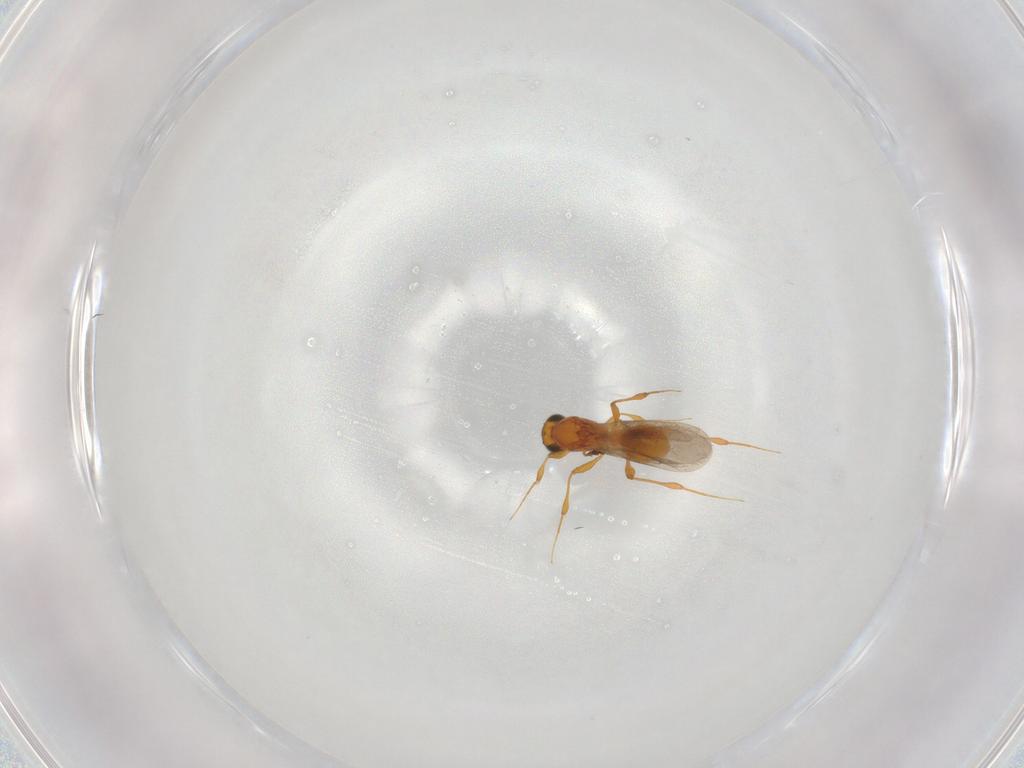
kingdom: Animalia
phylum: Arthropoda
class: Insecta
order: Hymenoptera
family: Platygastridae
